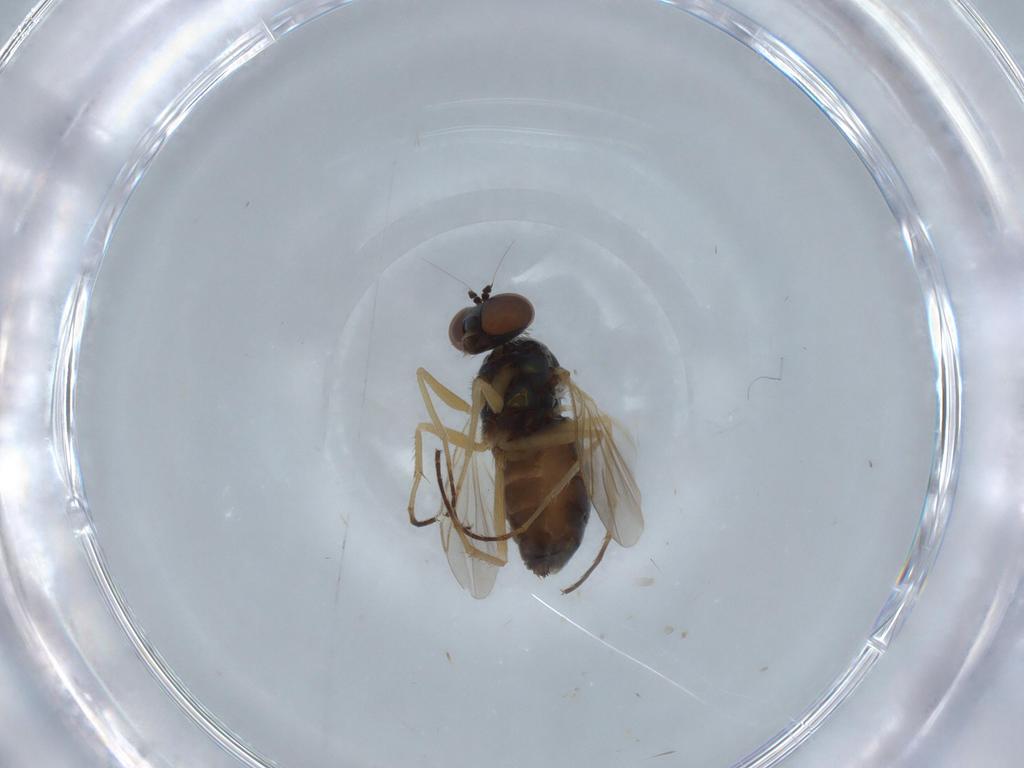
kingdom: Animalia
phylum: Arthropoda
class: Insecta
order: Diptera
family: Dolichopodidae
